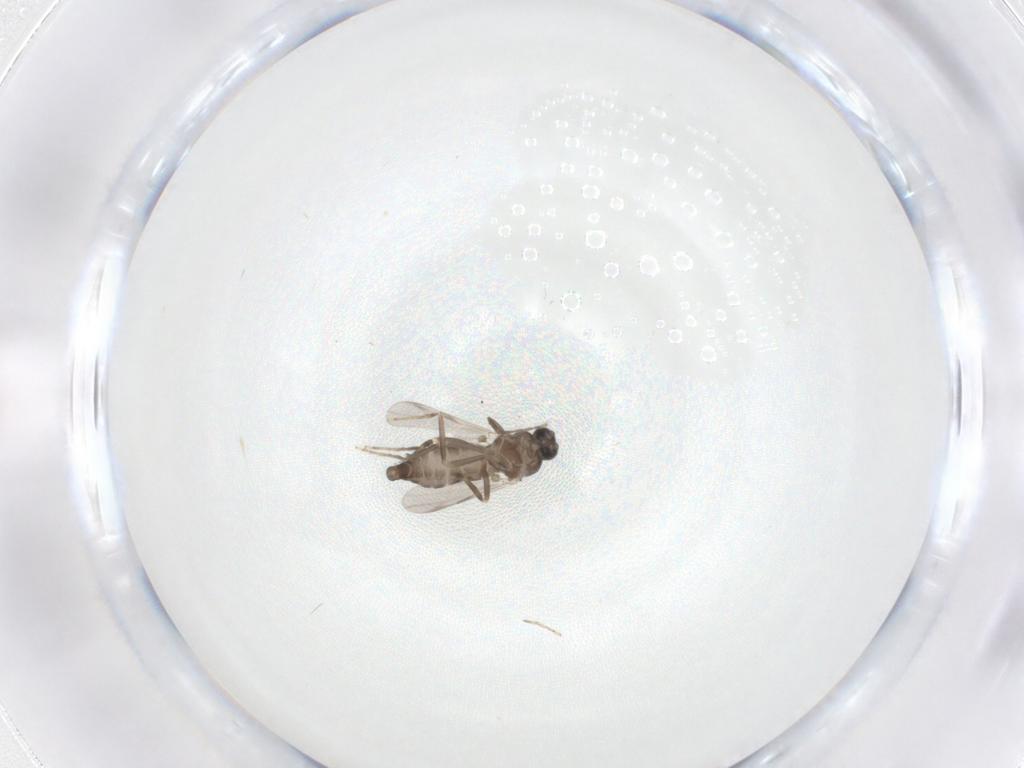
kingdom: Animalia
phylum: Arthropoda
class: Insecta
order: Diptera
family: Ceratopogonidae
